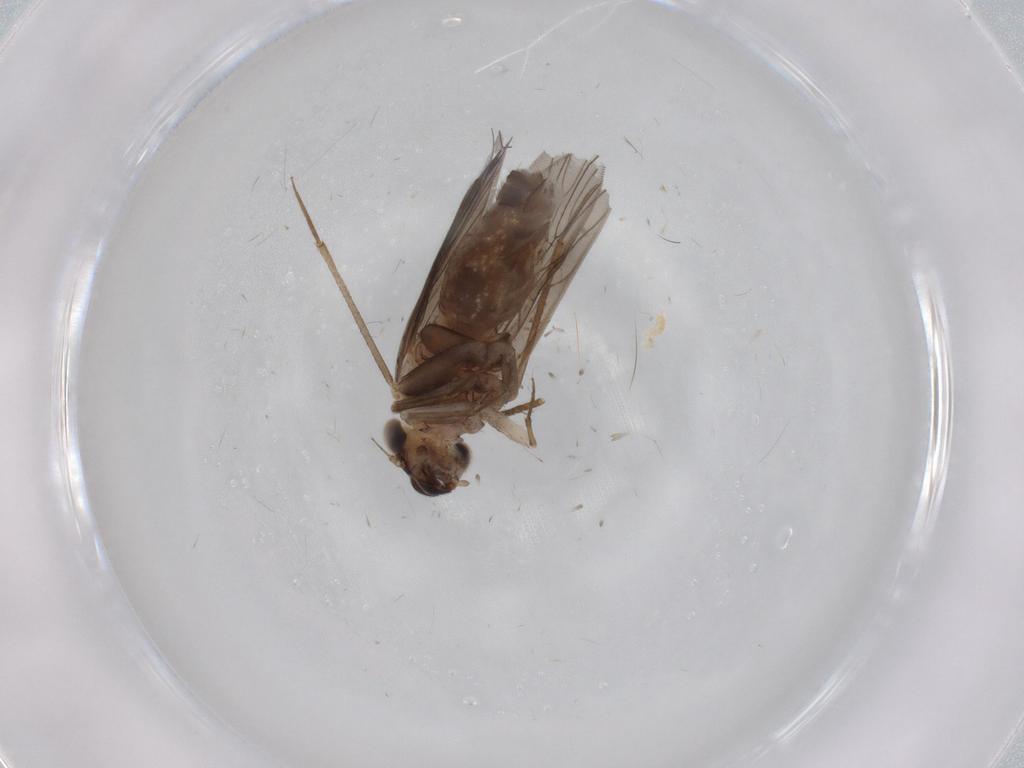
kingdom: Animalia
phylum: Arthropoda
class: Insecta
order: Psocodea
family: Lepidopsocidae
